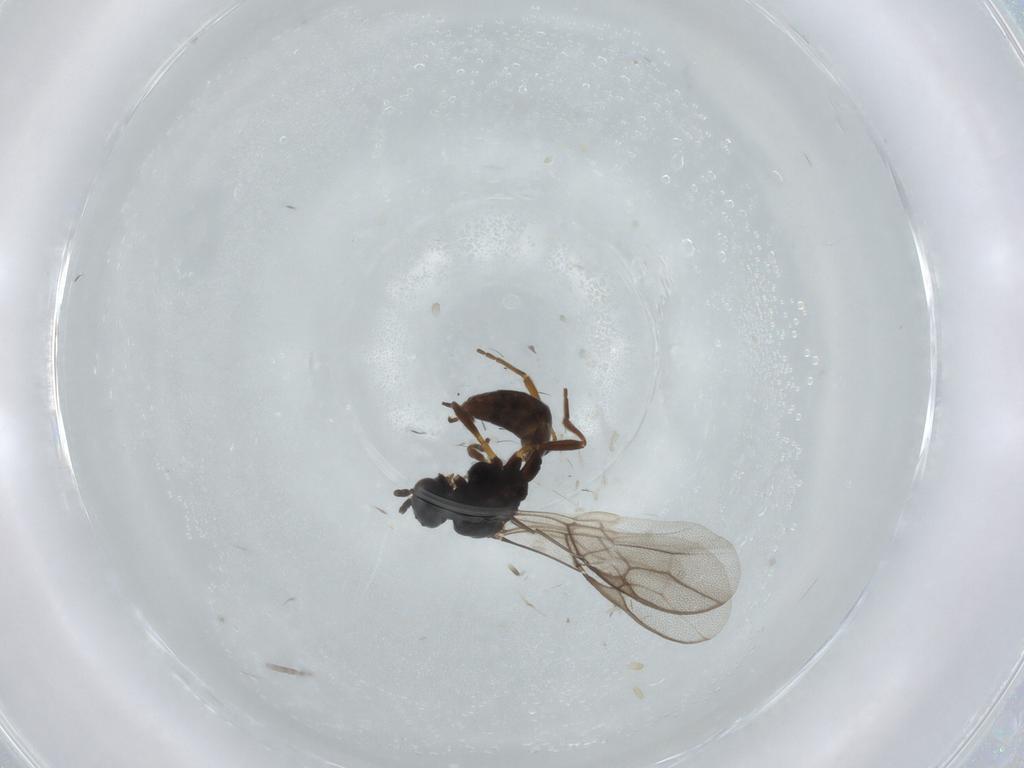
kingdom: Animalia
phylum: Arthropoda
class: Insecta
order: Hymenoptera
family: Braconidae
